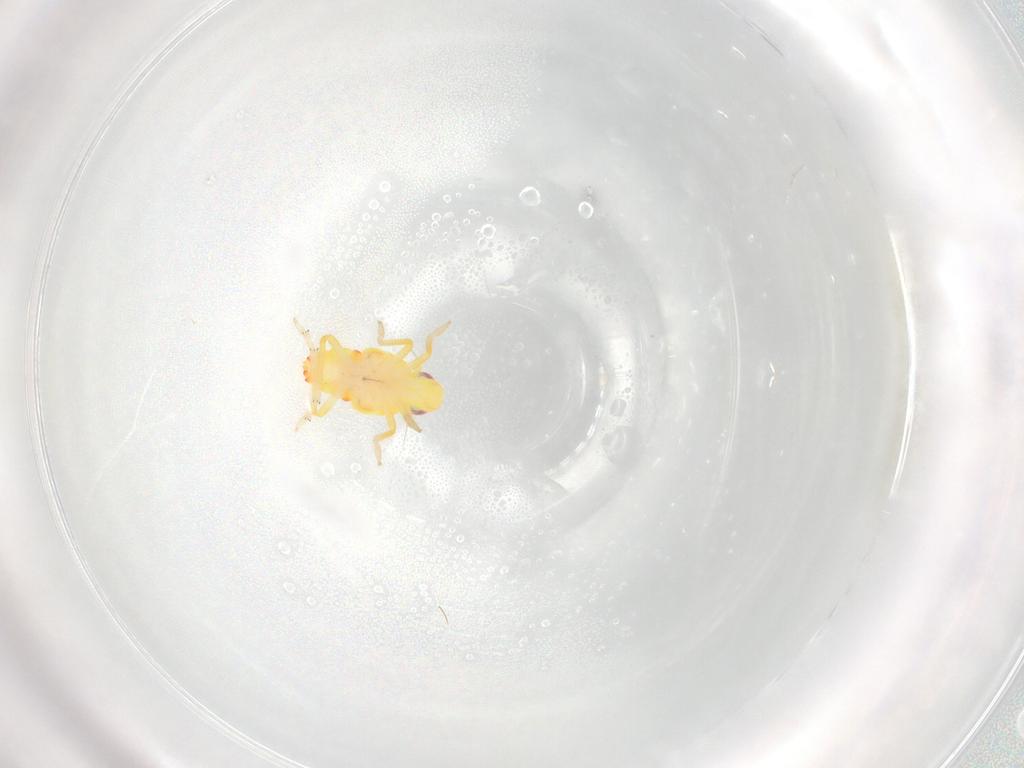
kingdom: Animalia
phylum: Arthropoda
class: Insecta
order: Hemiptera
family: Tropiduchidae
